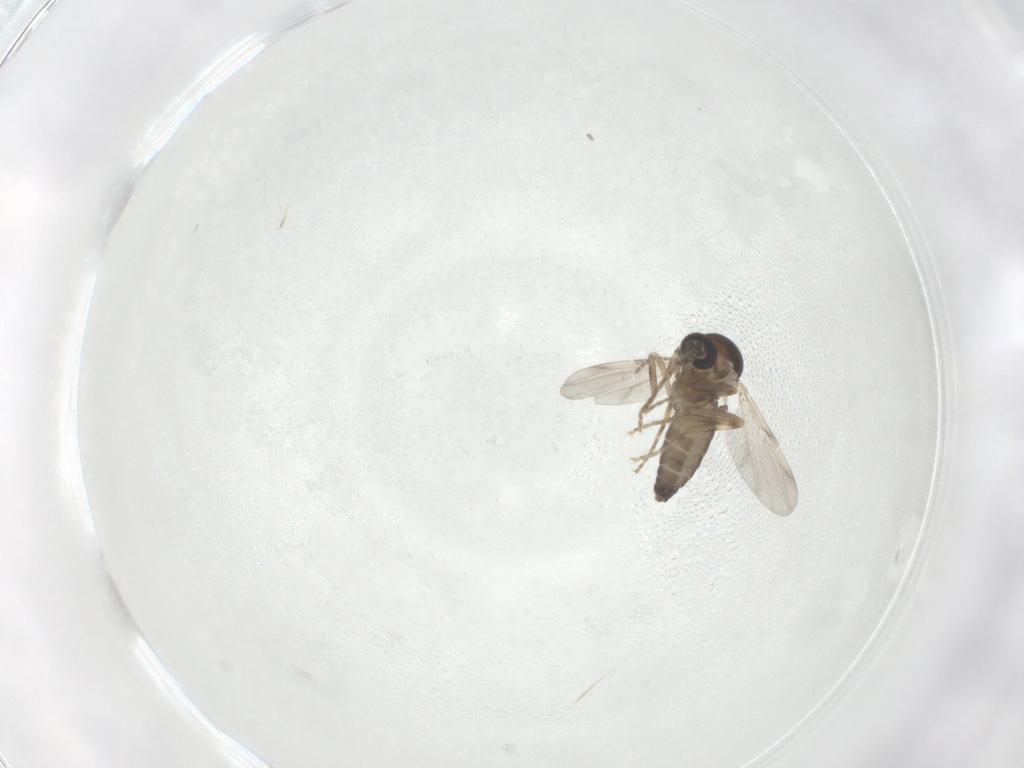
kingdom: Animalia
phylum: Arthropoda
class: Insecta
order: Diptera
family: Ceratopogonidae
